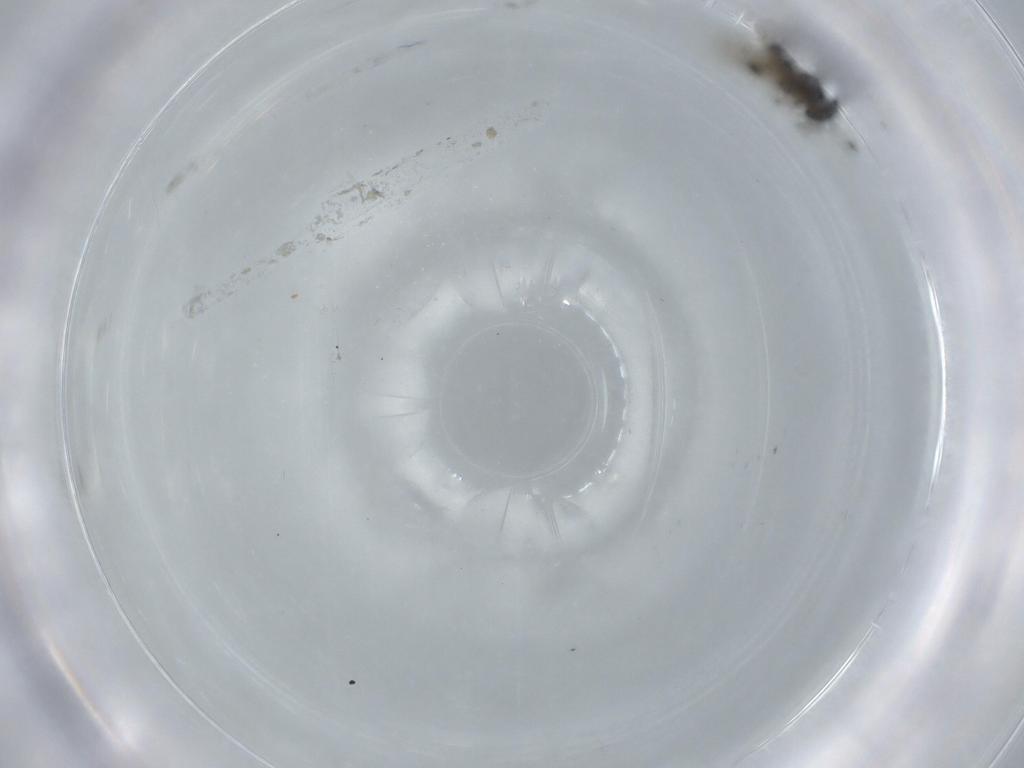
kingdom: Animalia
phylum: Arthropoda
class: Insecta
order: Hymenoptera
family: Encyrtidae
